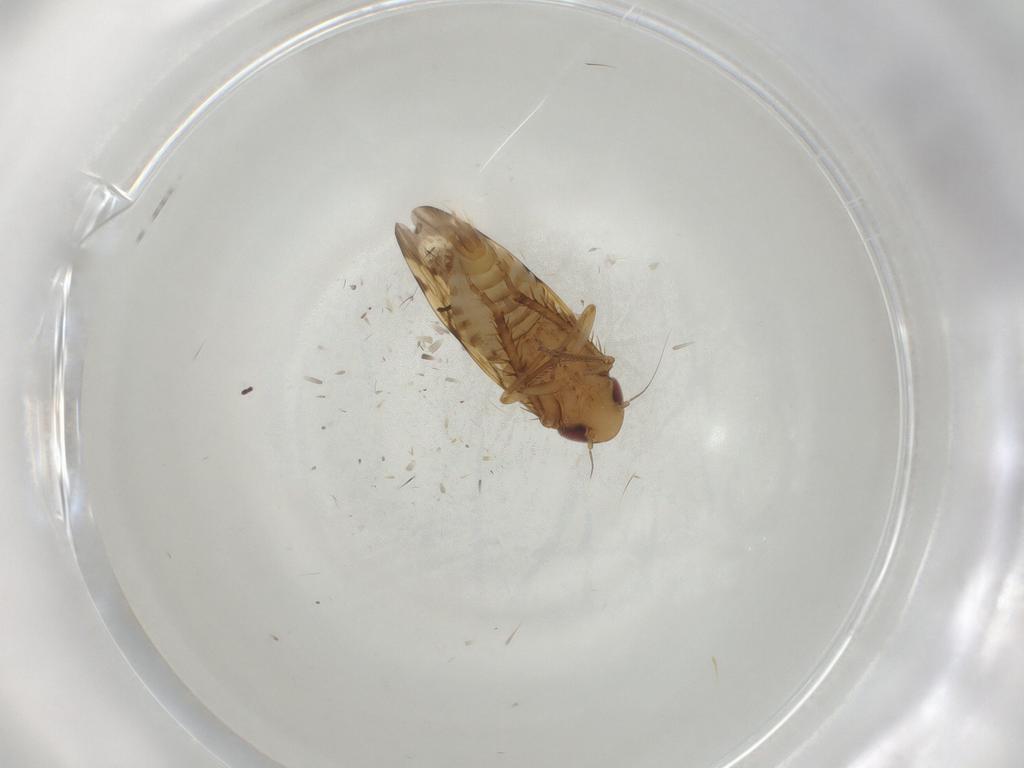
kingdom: Animalia
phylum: Arthropoda
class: Insecta
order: Hemiptera
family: Cicadellidae
